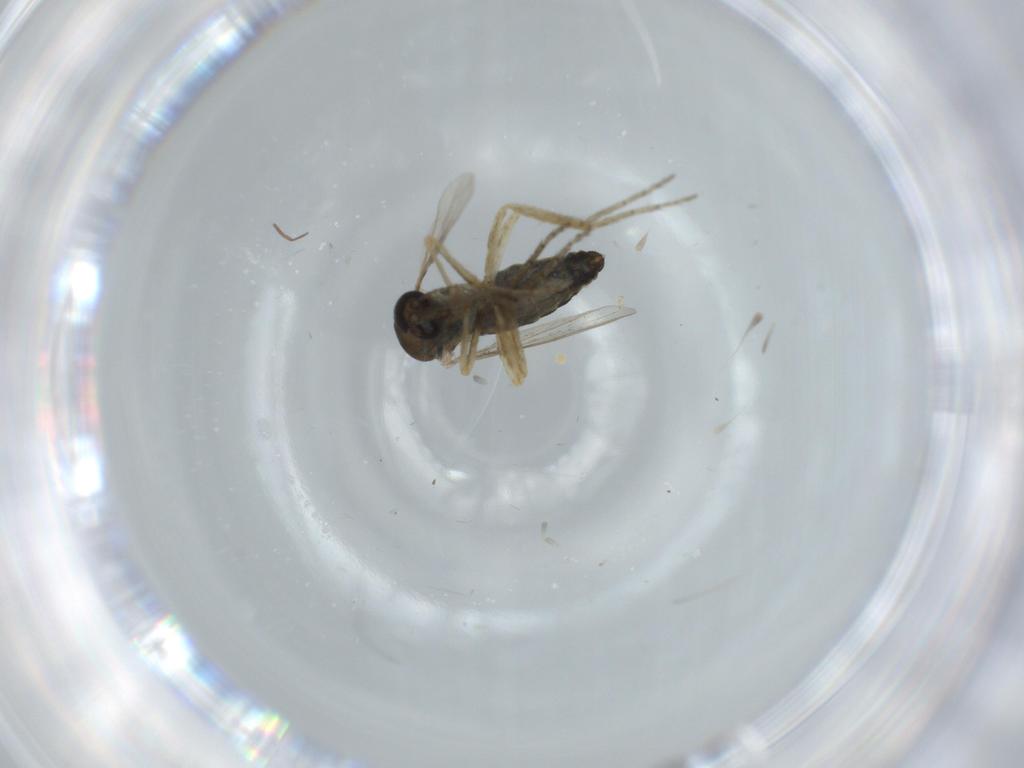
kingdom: Animalia
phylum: Arthropoda
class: Insecta
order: Diptera
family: Ceratopogonidae
